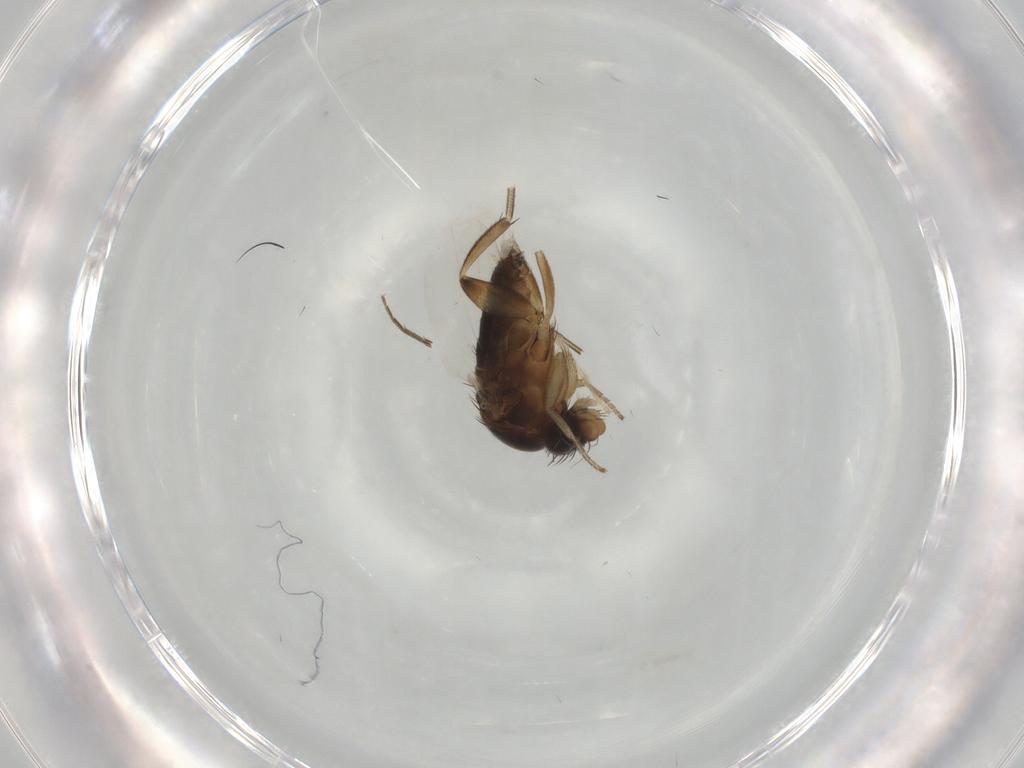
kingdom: Animalia
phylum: Arthropoda
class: Insecta
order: Diptera
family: Phoridae
